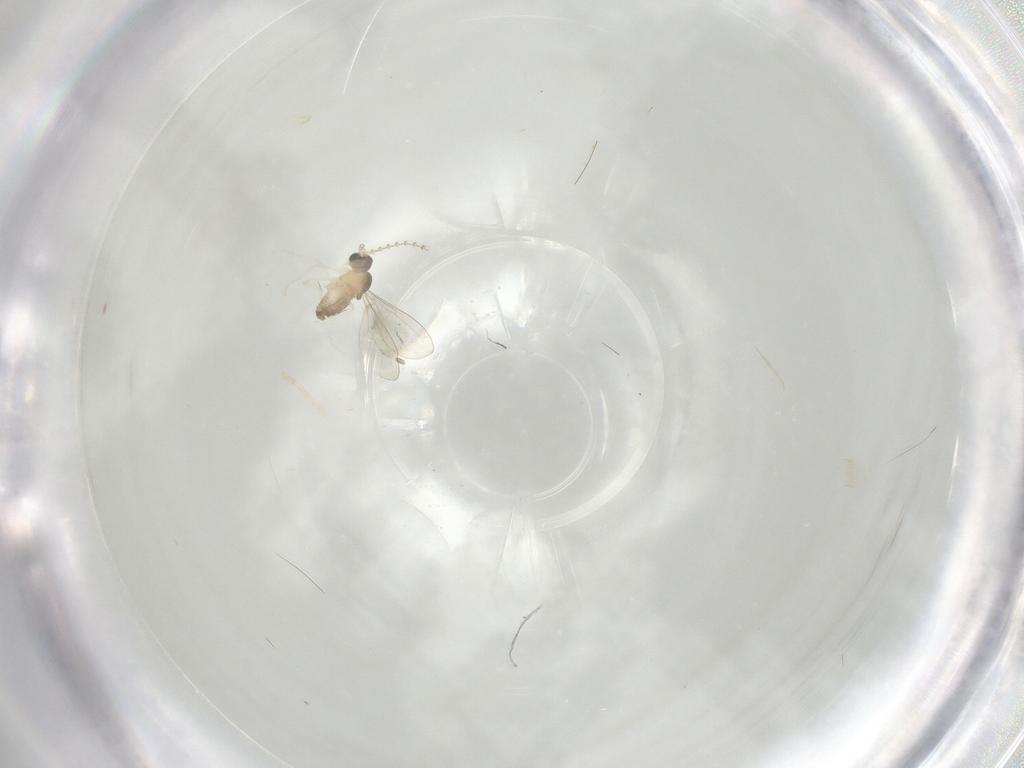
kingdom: Animalia
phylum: Arthropoda
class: Insecta
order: Diptera
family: Cecidomyiidae
